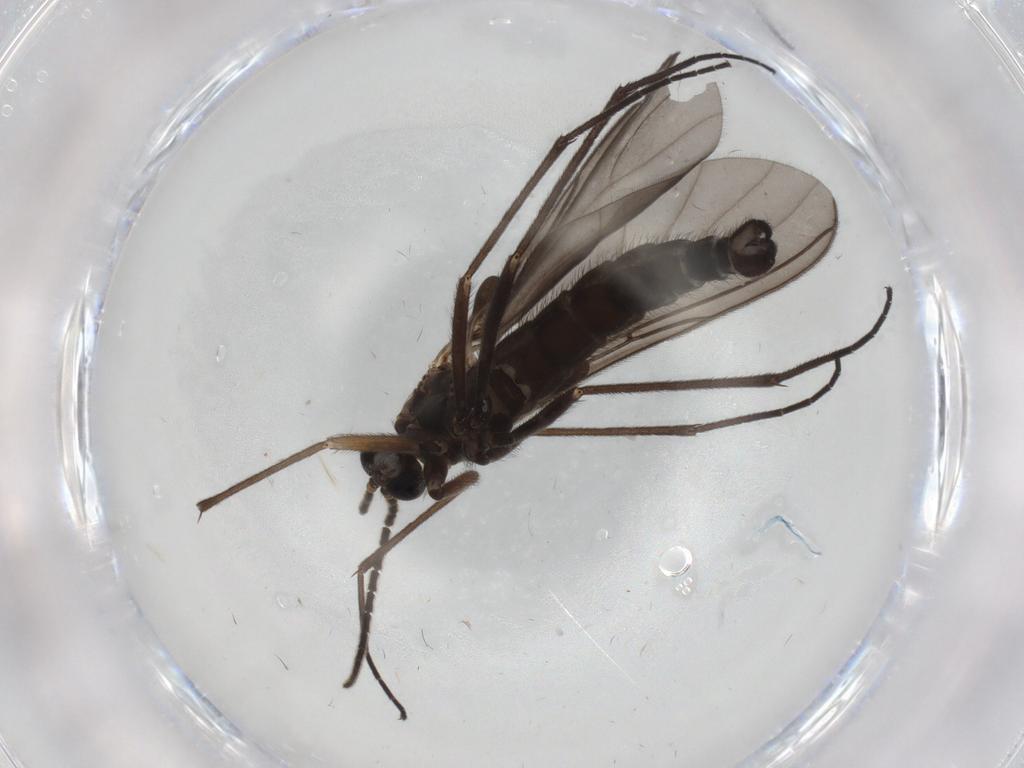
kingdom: Animalia
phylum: Arthropoda
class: Insecta
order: Diptera
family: Sciaridae
